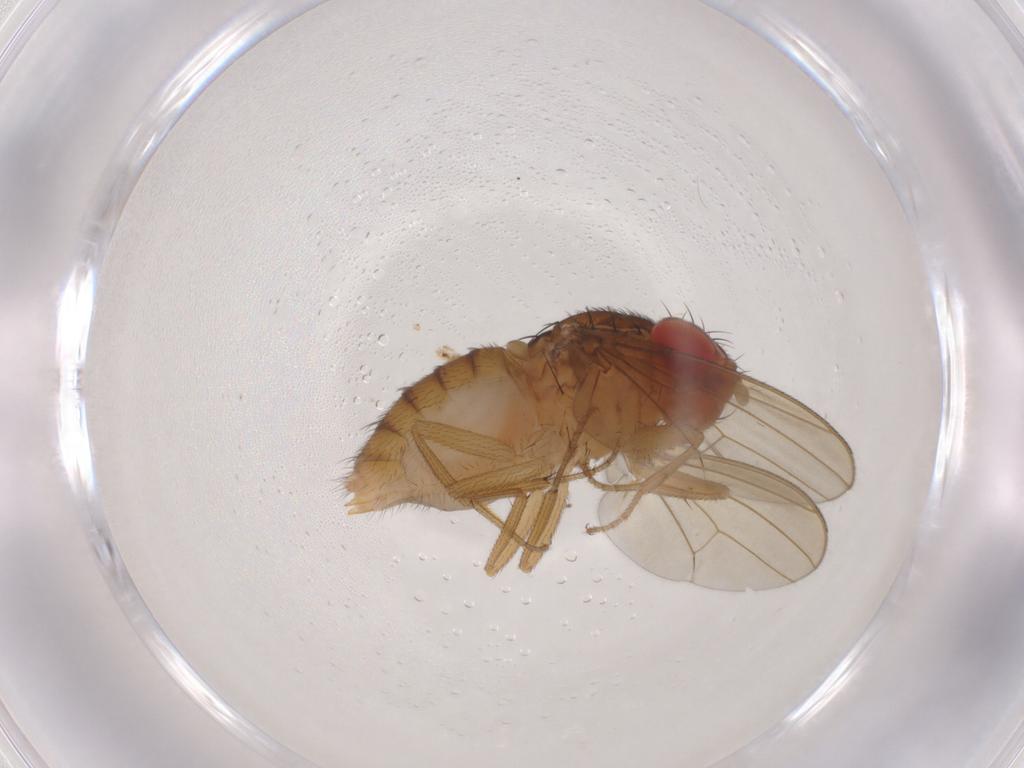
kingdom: Animalia
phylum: Arthropoda
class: Insecta
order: Diptera
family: Drosophilidae
